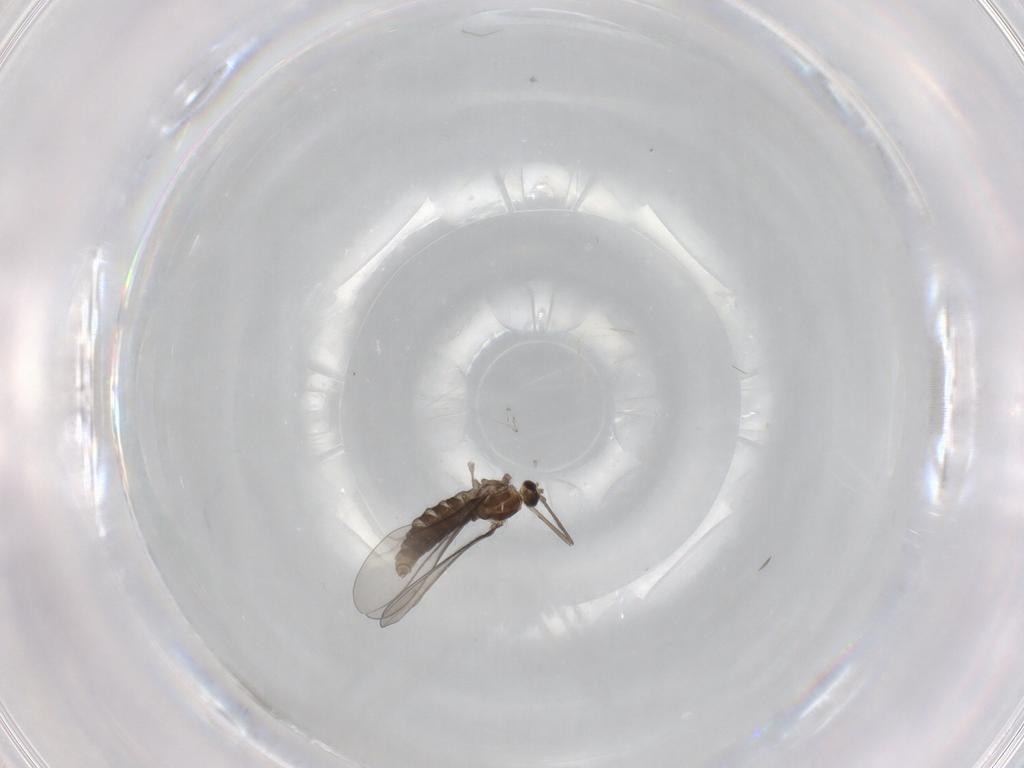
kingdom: Animalia
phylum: Arthropoda
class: Insecta
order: Diptera
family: Cecidomyiidae
